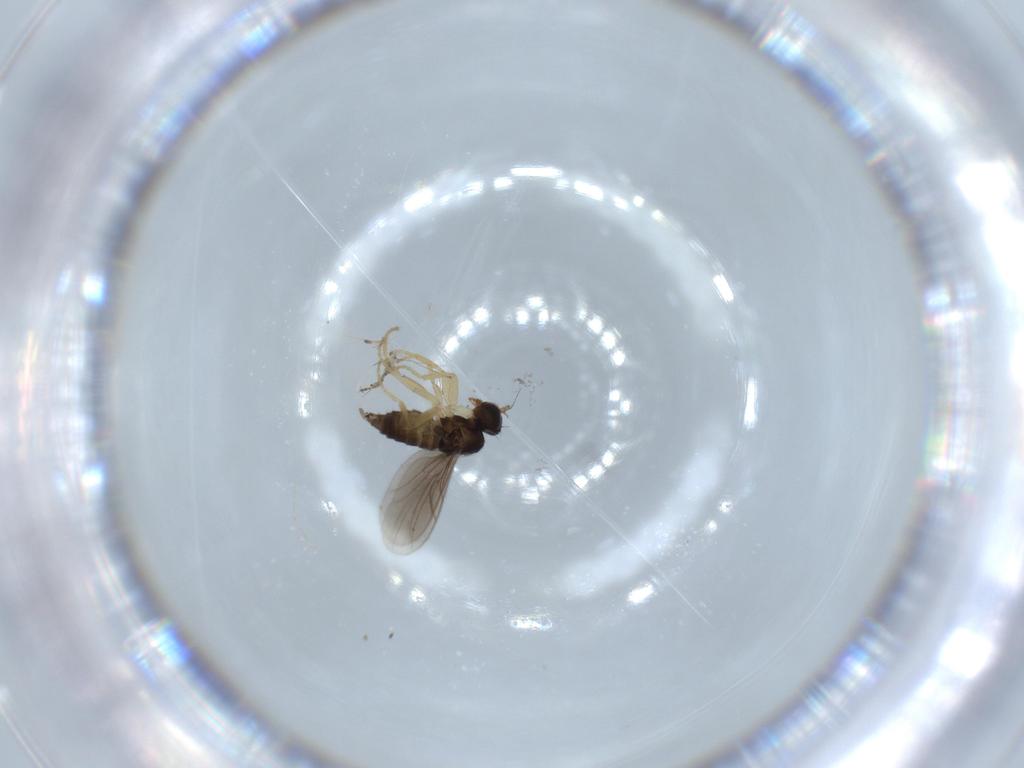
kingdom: Animalia
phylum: Arthropoda
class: Insecta
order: Diptera
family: Hybotidae
